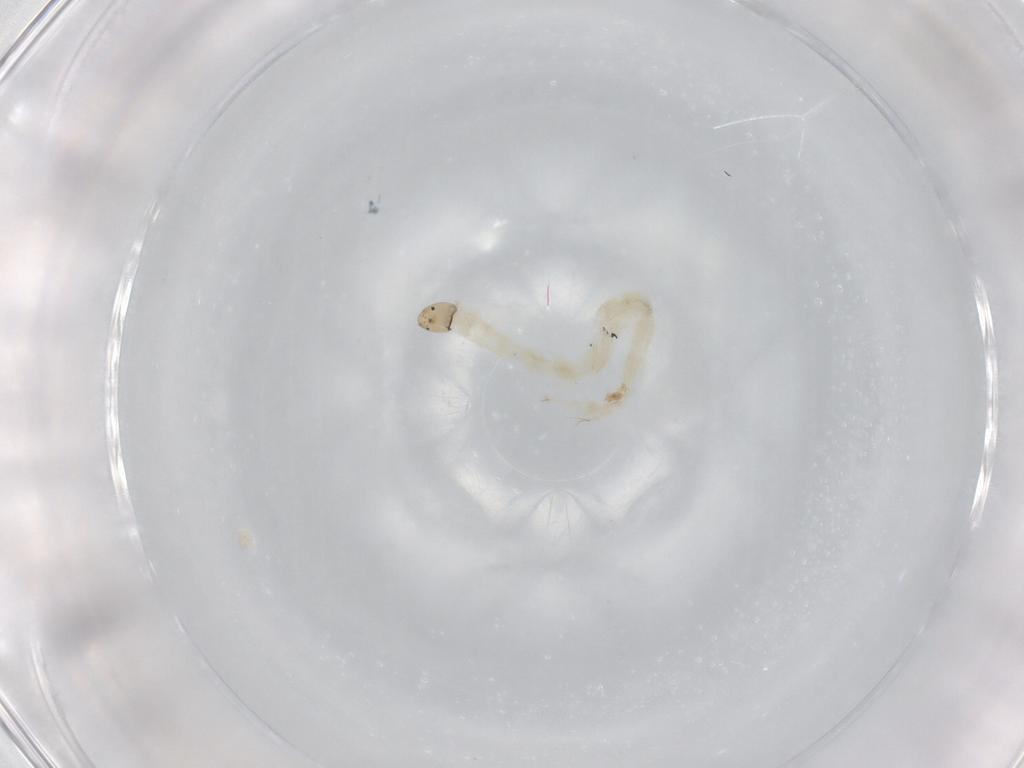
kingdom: Animalia
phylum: Arthropoda
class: Insecta
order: Diptera
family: Chironomidae
